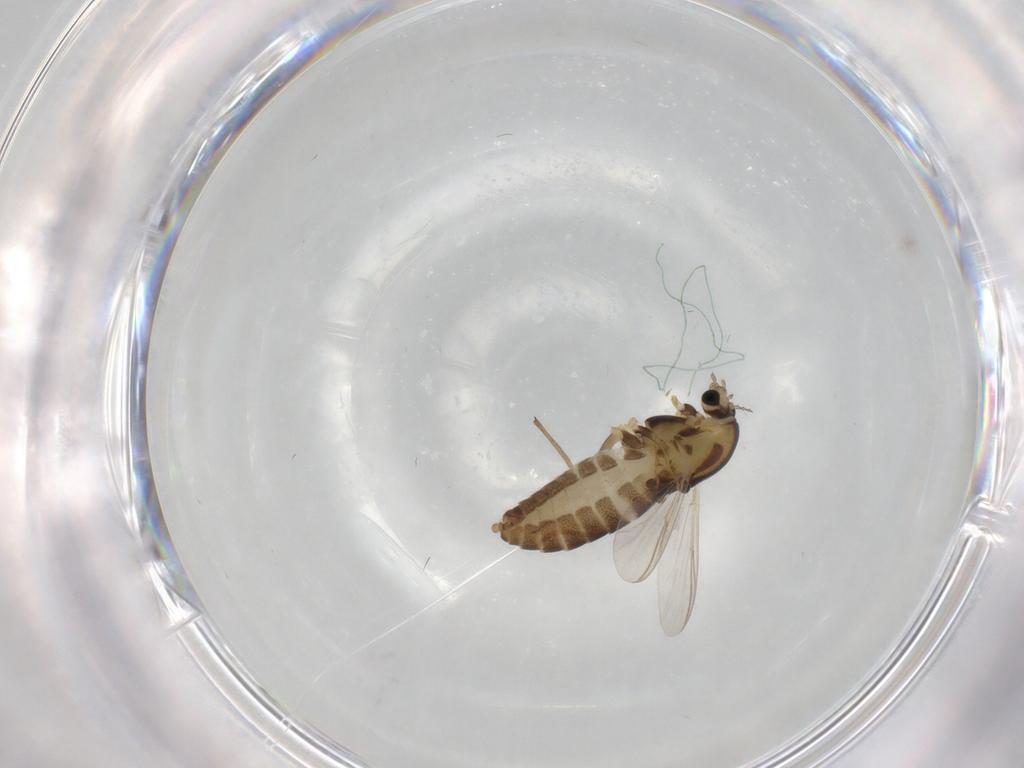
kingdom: Animalia
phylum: Arthropoda
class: Insecta
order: Diptera
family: Chironomidae
